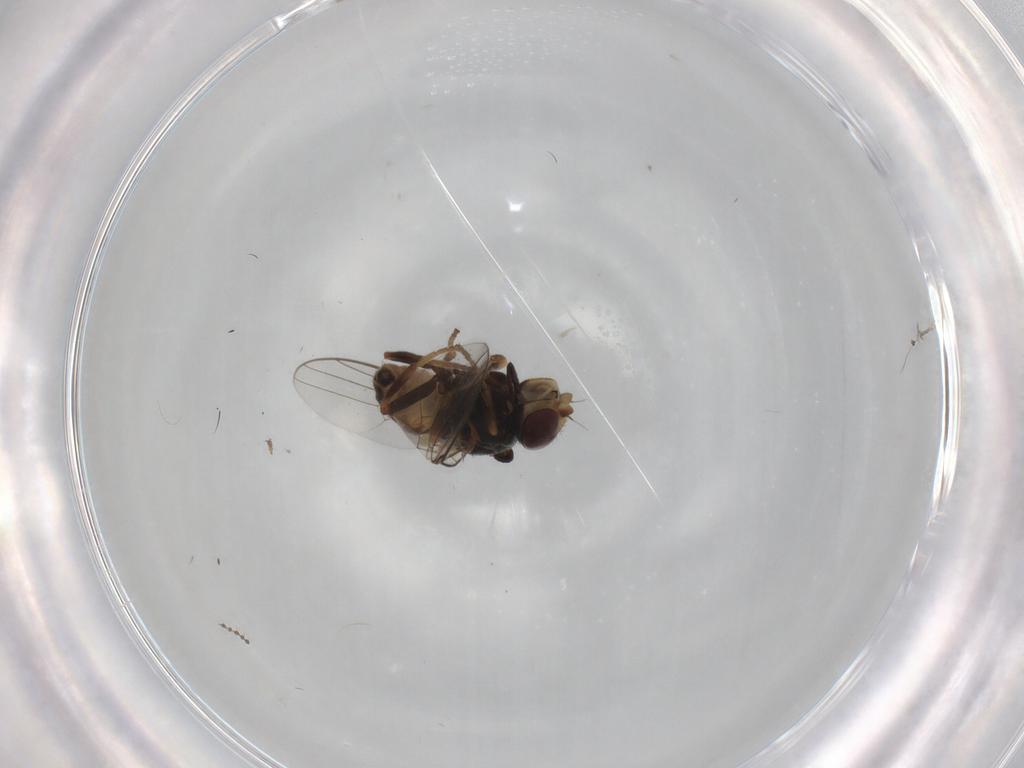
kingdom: Animalia
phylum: Arthropoda
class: Insecta
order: Diptera
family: Chloropidae
